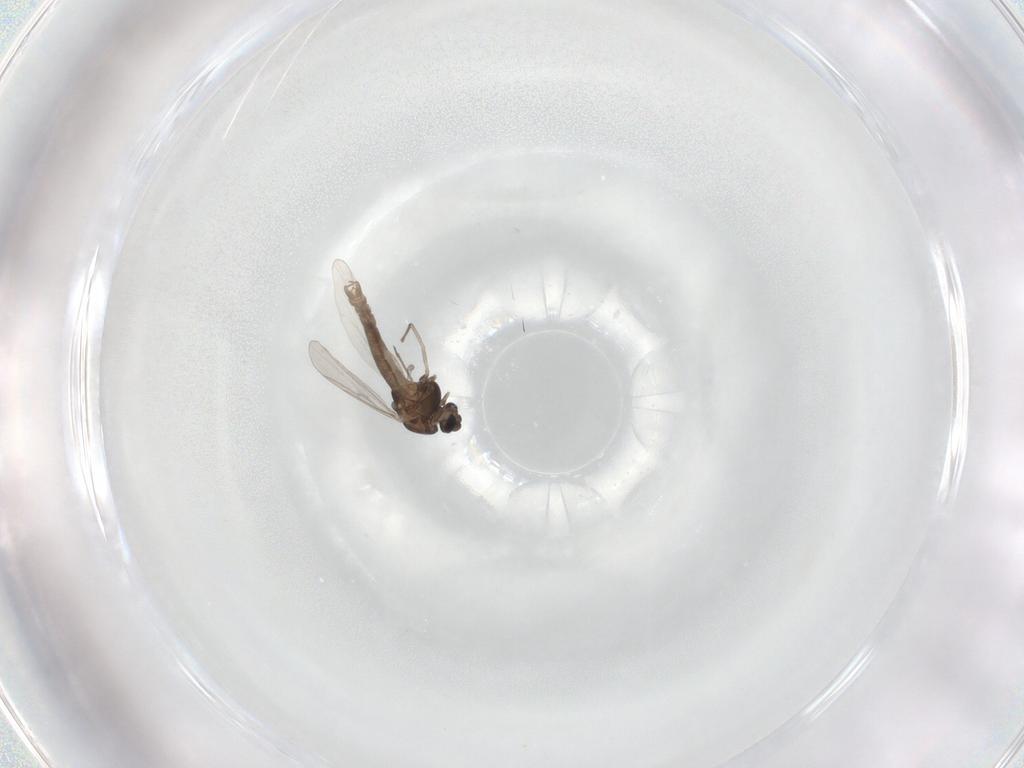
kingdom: Animalia
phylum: Arthropoda
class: Insecta
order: Diptera
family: Chironomidae
